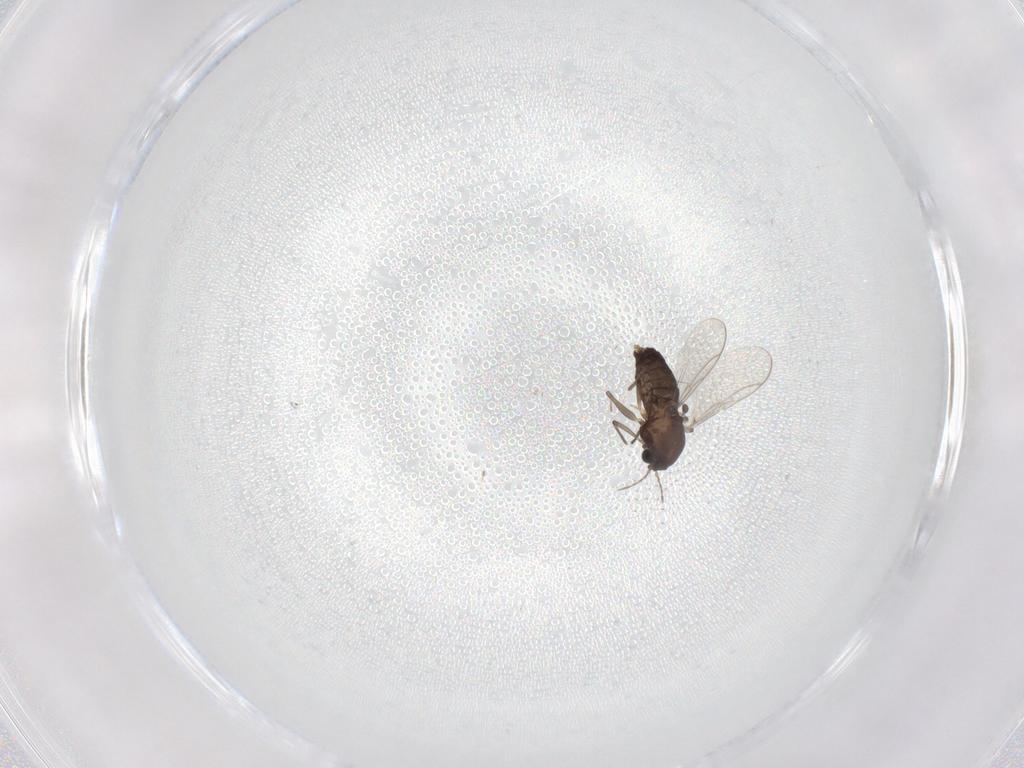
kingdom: Animalia
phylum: Arthropoda
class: Insecta
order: Diptera
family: Chironomidae
